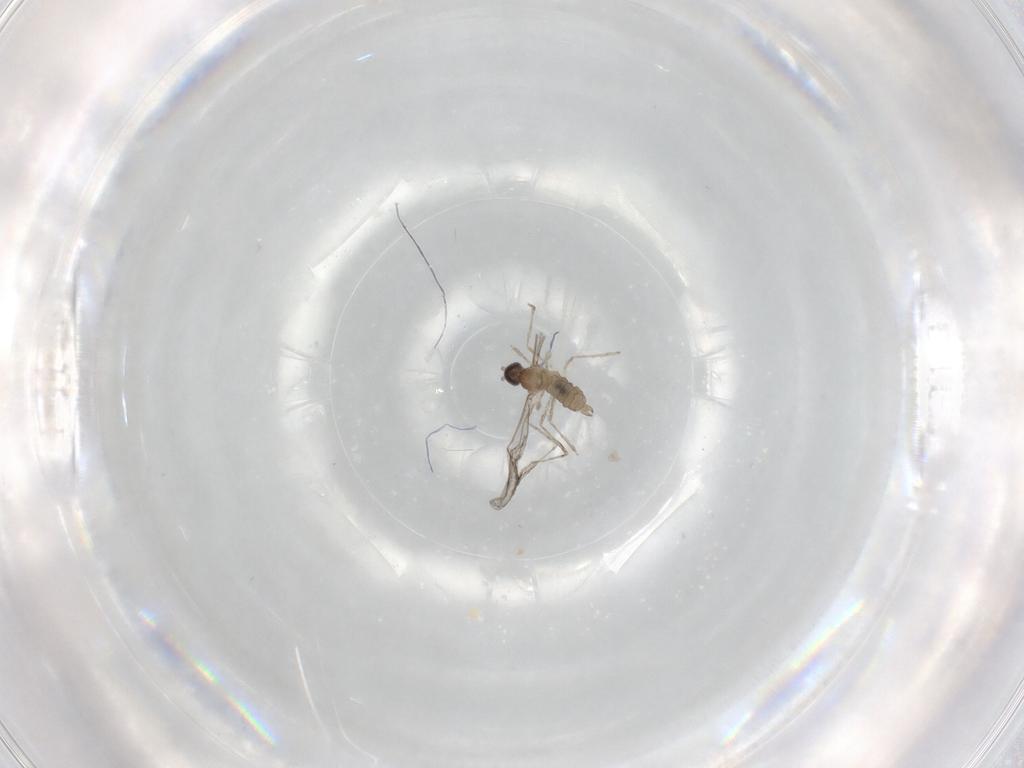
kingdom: Animalia
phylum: Arthropoda
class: Insecta
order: Diptera
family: Cecidomyiidae
